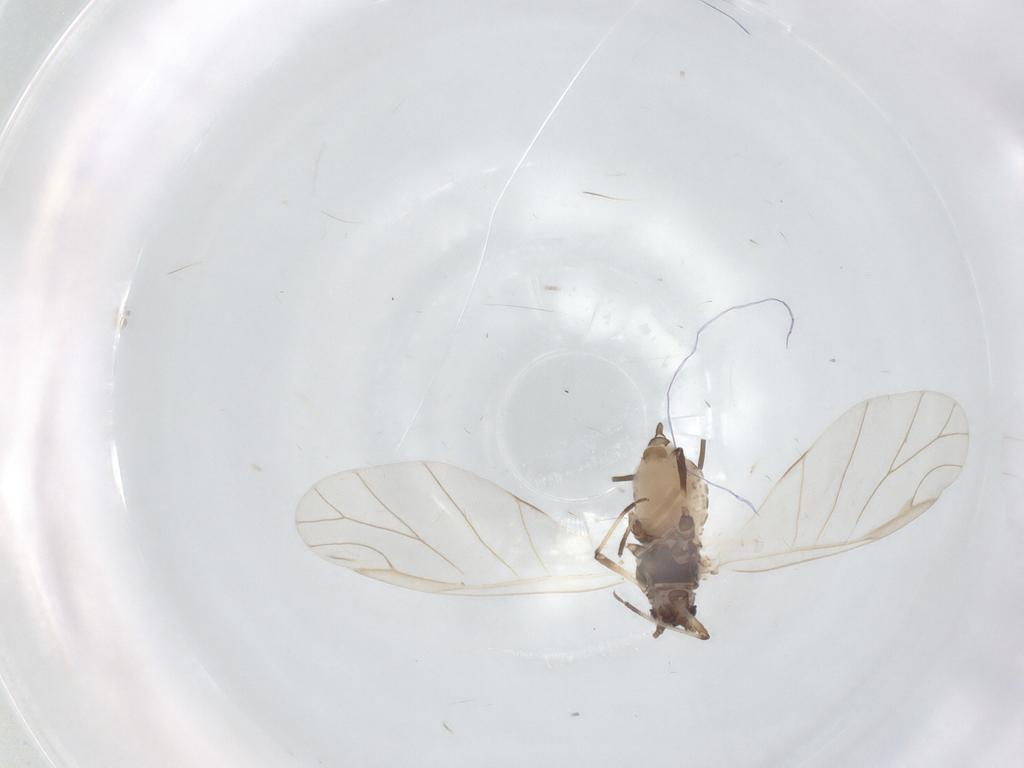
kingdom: Animalia
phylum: Arthropoda
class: Insecta
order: Hemiptera
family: Aphididae
